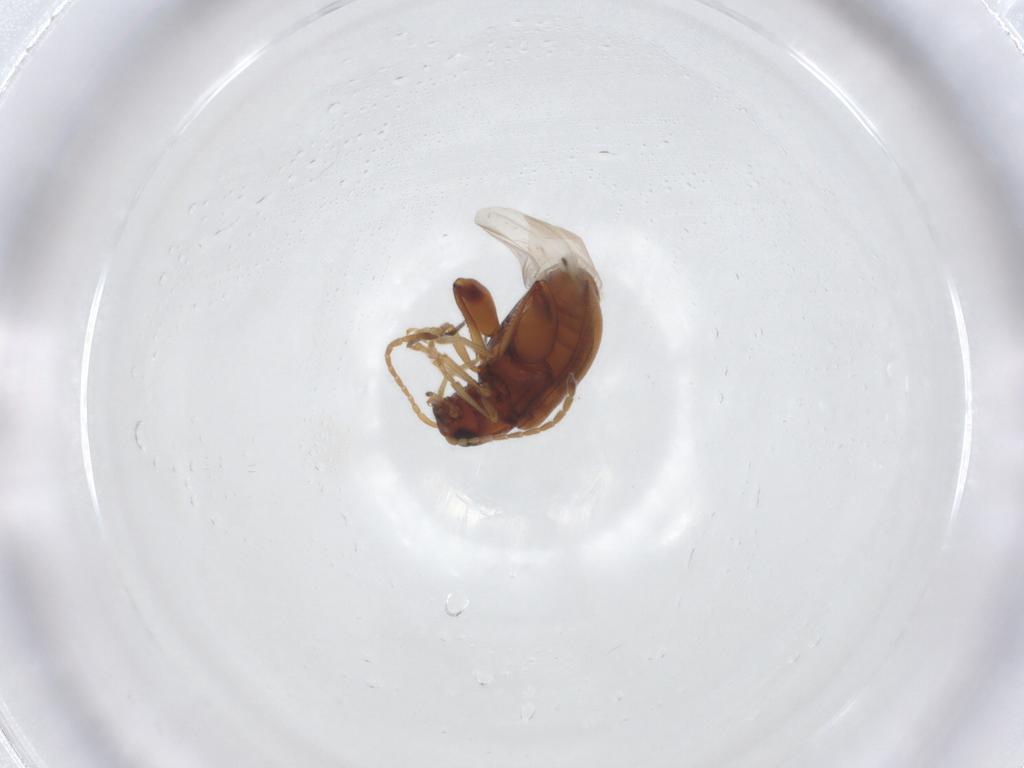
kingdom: Animalia
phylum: Arthropoda
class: Insecta
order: Coleoptera
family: Chrysomelidae
